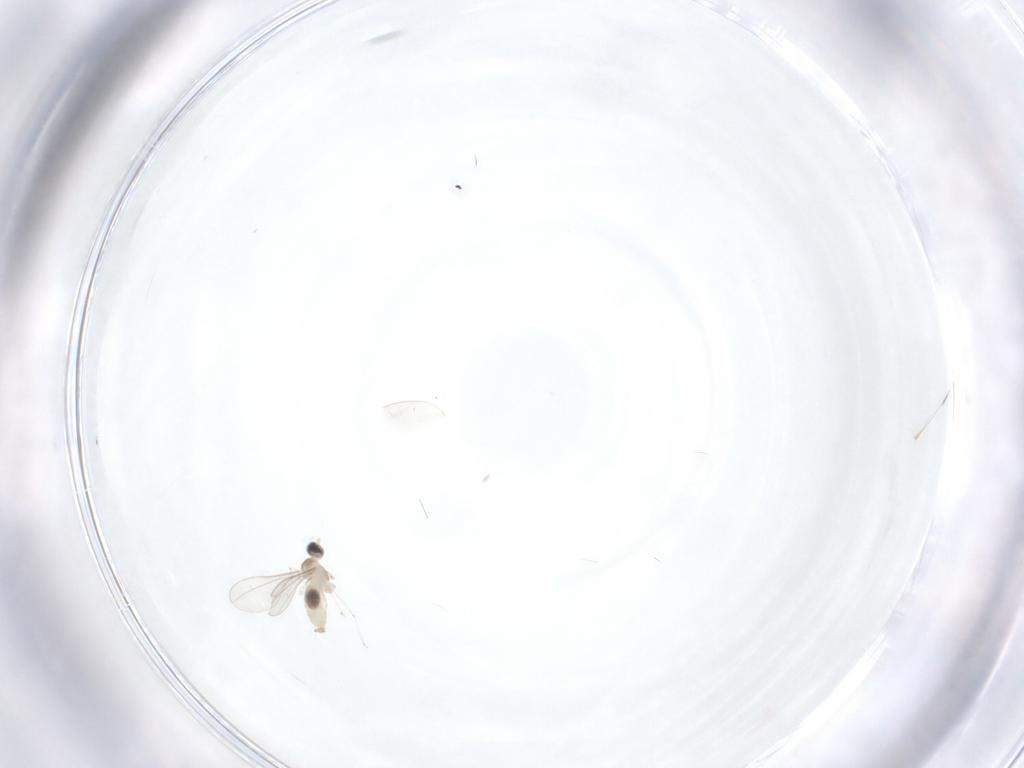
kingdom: Animalia
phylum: Arthropoda
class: Insecta
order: Diptera
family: Cecidomyiidae
